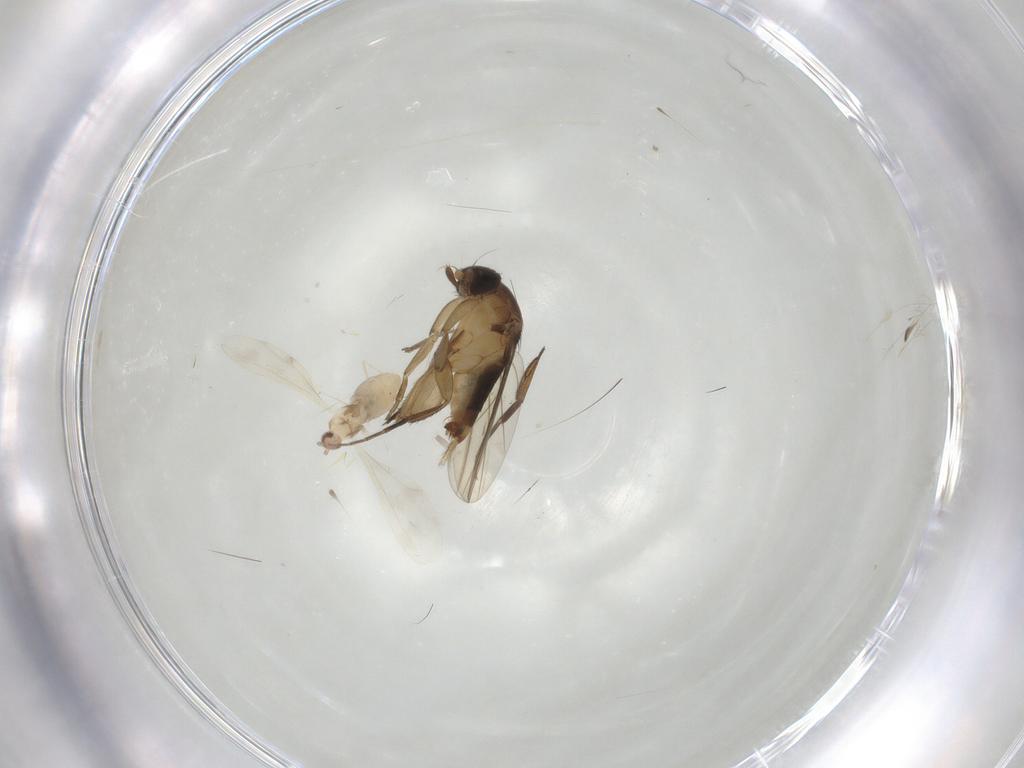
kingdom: Animalia
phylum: Arthropoda
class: Insecta
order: Diptera
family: Phoridae
